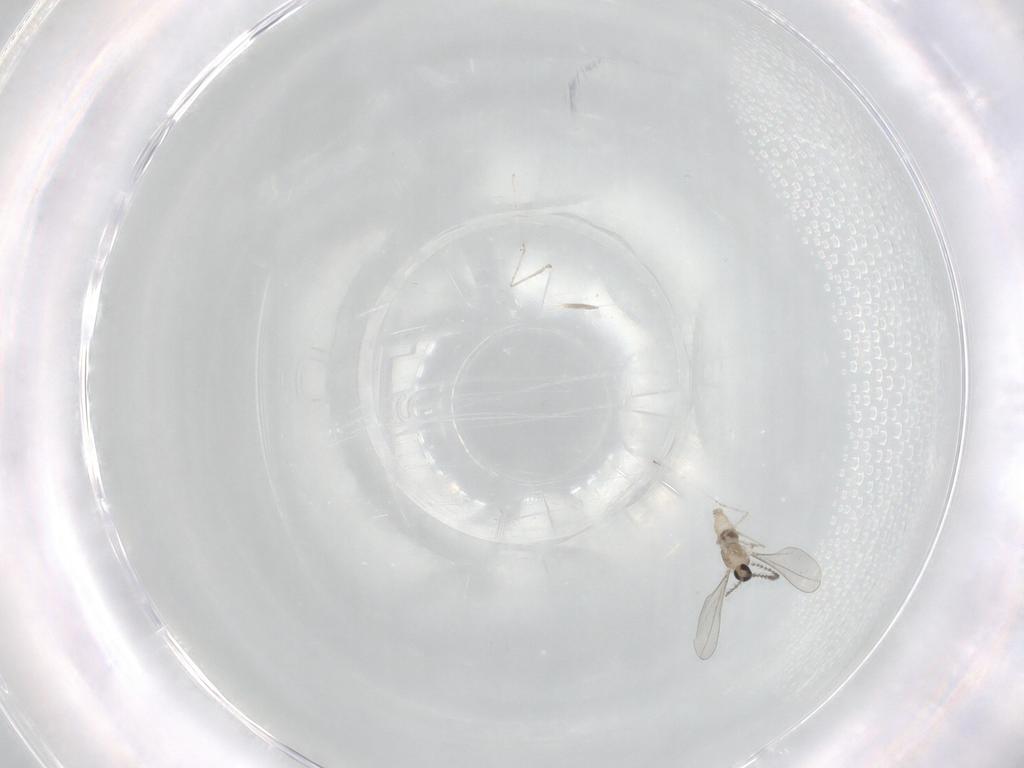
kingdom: Animalia
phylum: Arthropoda
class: Insecta
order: Diptera
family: Cecidomyiidae
